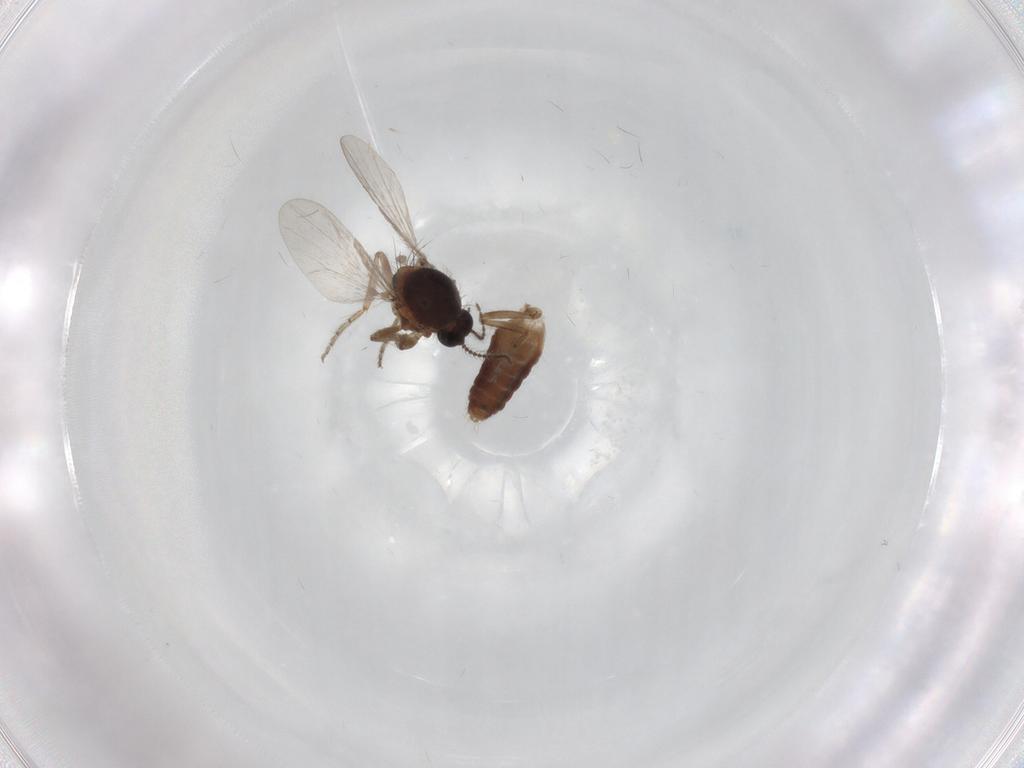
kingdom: Animalia
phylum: Arthropoda
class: Insecta
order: Diptera
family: Ceratopogonidae
